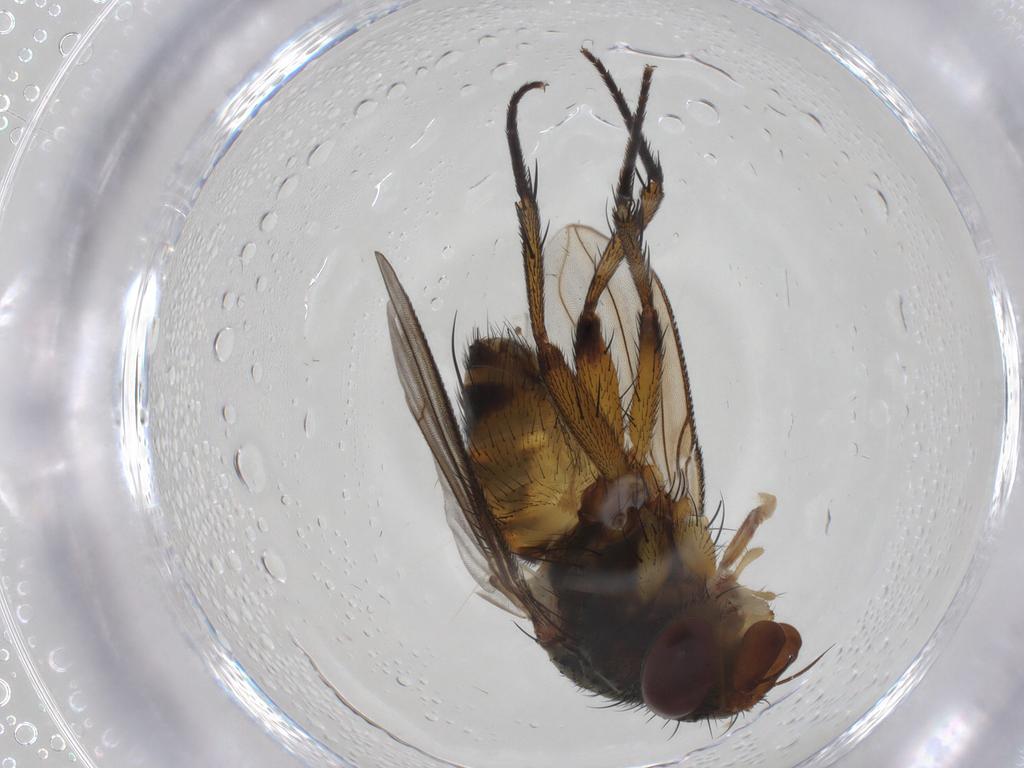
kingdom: Animalia
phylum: Arthropoda
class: Insecta
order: Diptera
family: Tachinidae
